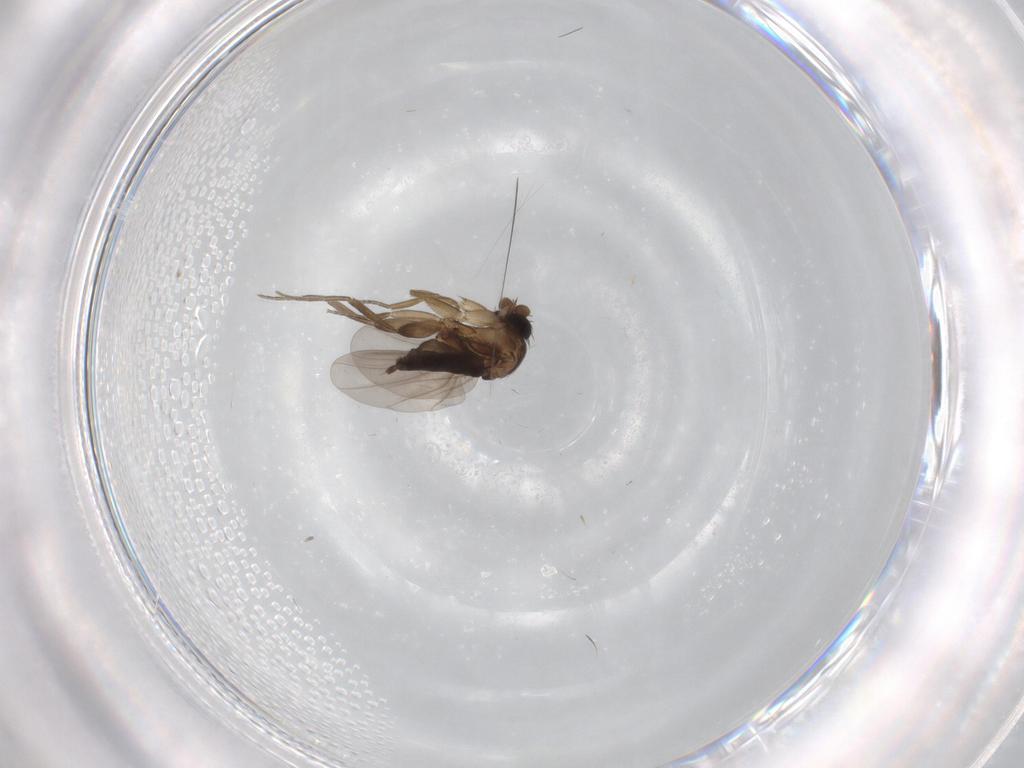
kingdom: Animalia
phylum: Arthropoda
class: Insecta
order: Diptera
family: Phoridae
